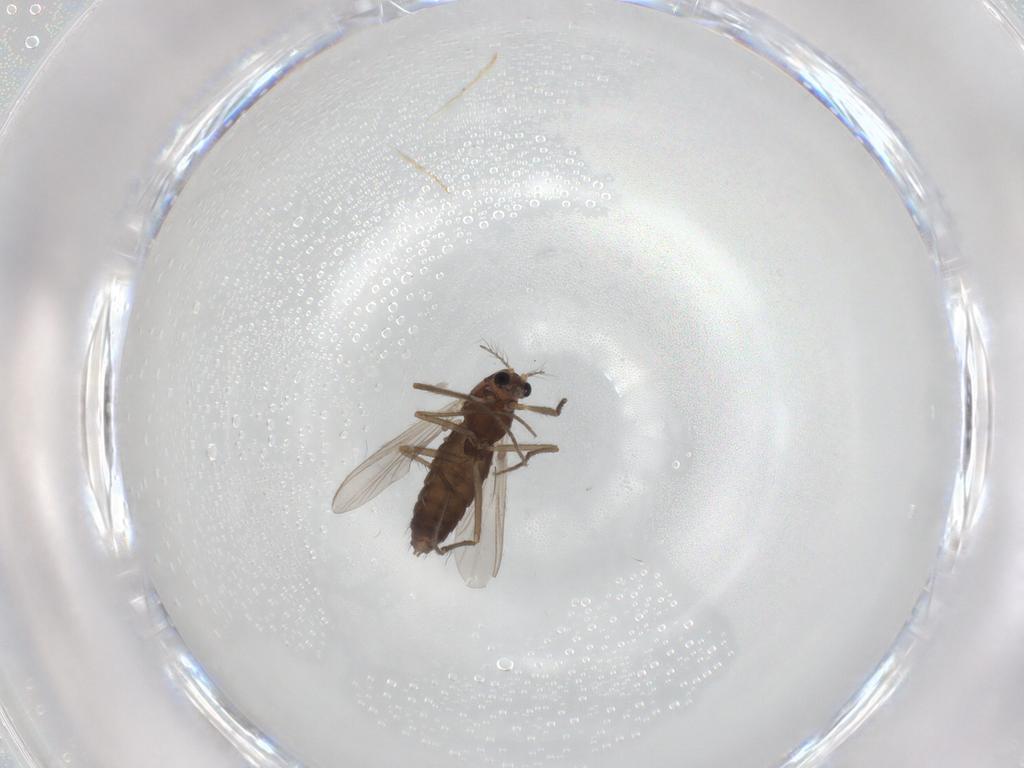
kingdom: Animalia
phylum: Arthropoda
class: Insecta
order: Diptera
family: Chironomidae
